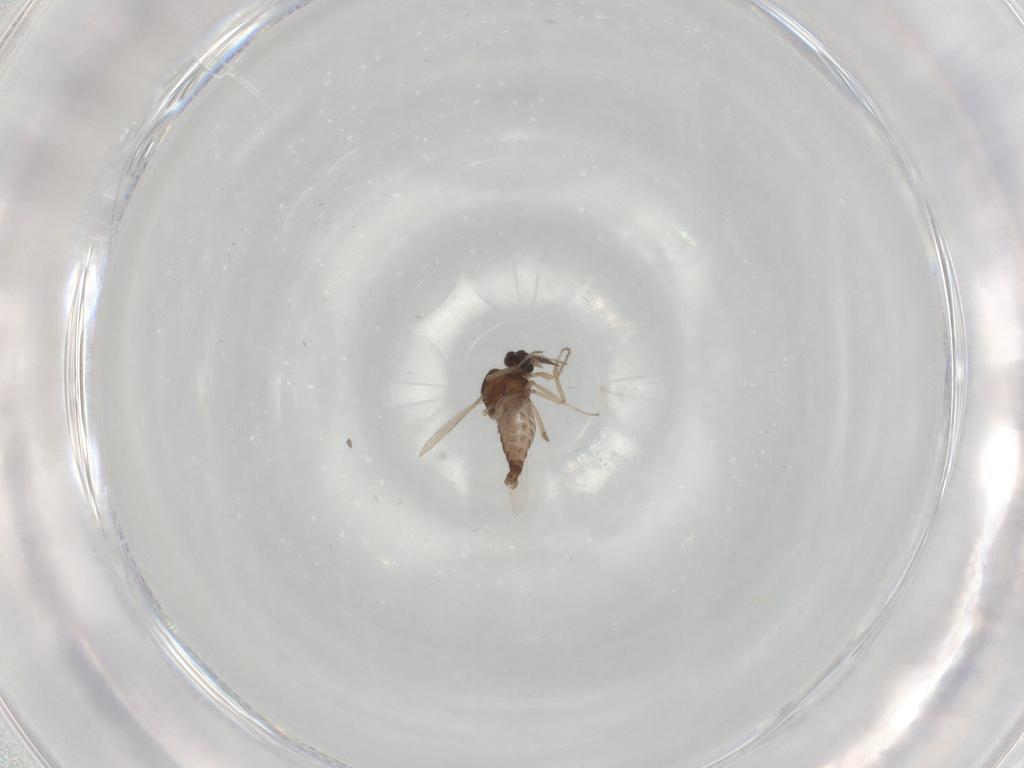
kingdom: Animalia
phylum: Arthropoda
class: Insecta
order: Diptera
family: Ceratopogonidae
